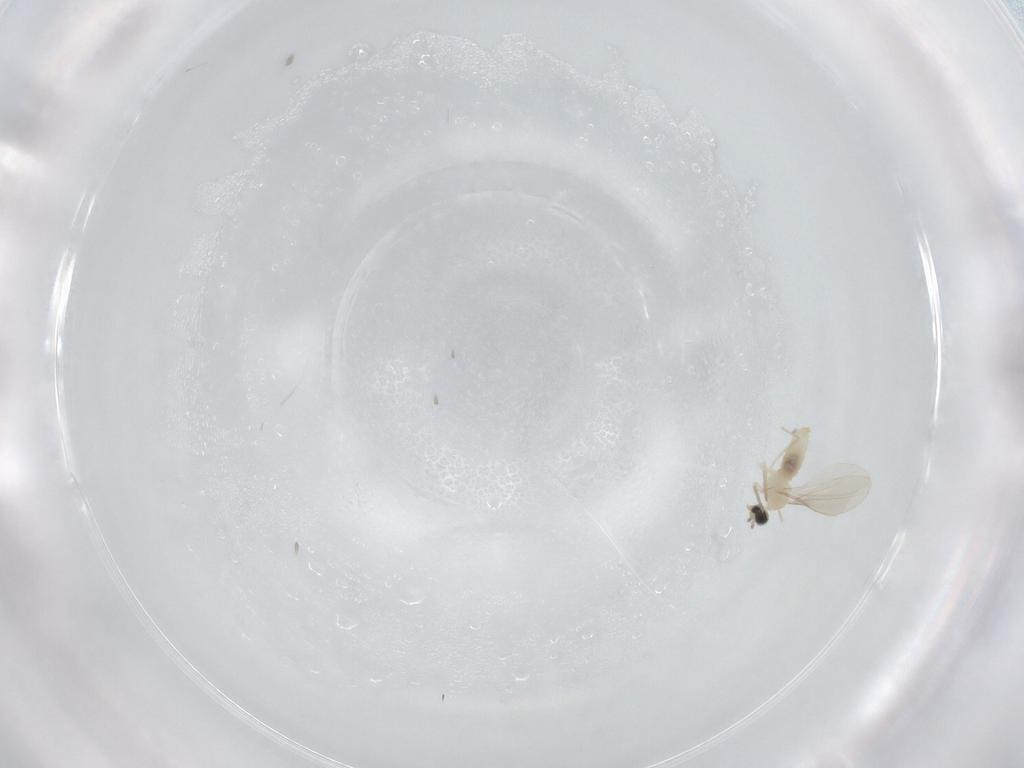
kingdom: Animalia
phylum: Arthropoda
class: Insecta
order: Diptera
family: Cecidomyiidae
